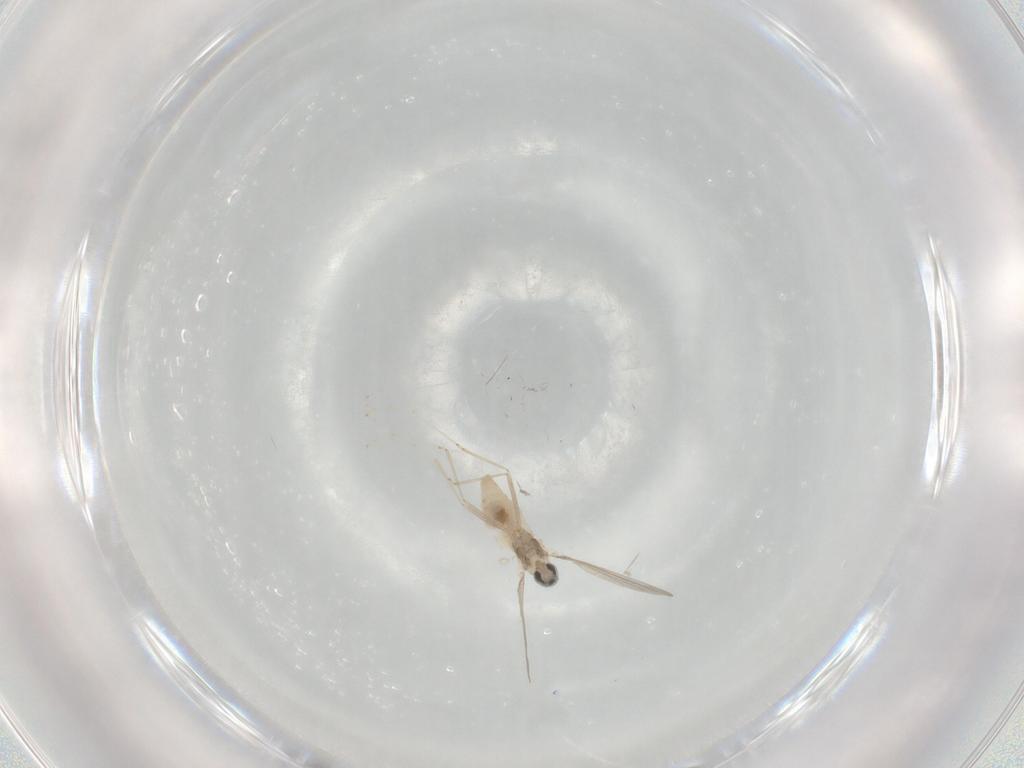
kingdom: Animalia
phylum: Arthropoda
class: Insecta
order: Diptera
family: Cecidomyiidae
